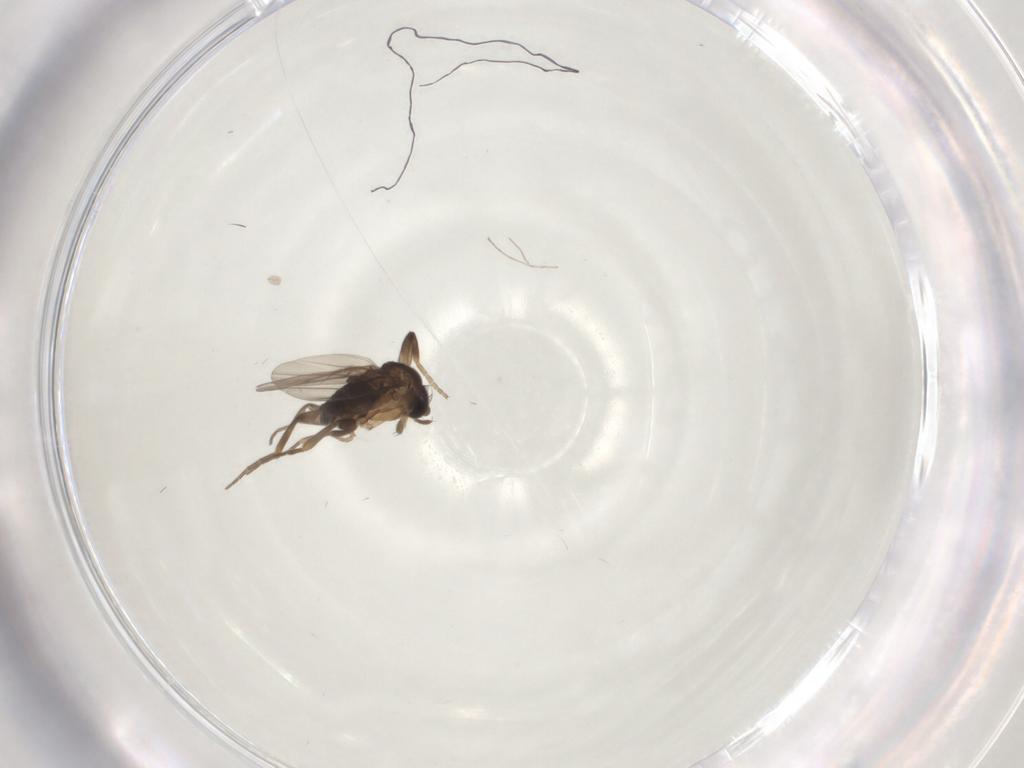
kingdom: Animalia
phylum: Arthropoda
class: Insecta
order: Diptera
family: Phoridae
